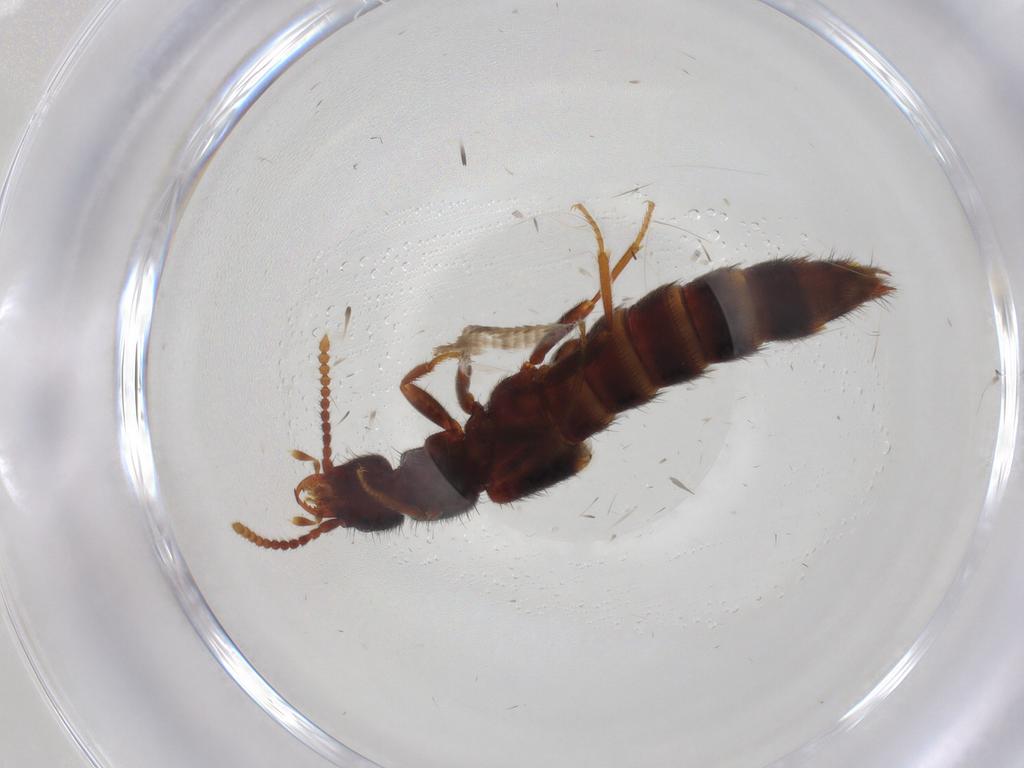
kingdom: Animalia
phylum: Arthropoda
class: Insecta
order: Coleoptera
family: Staphylinidae
